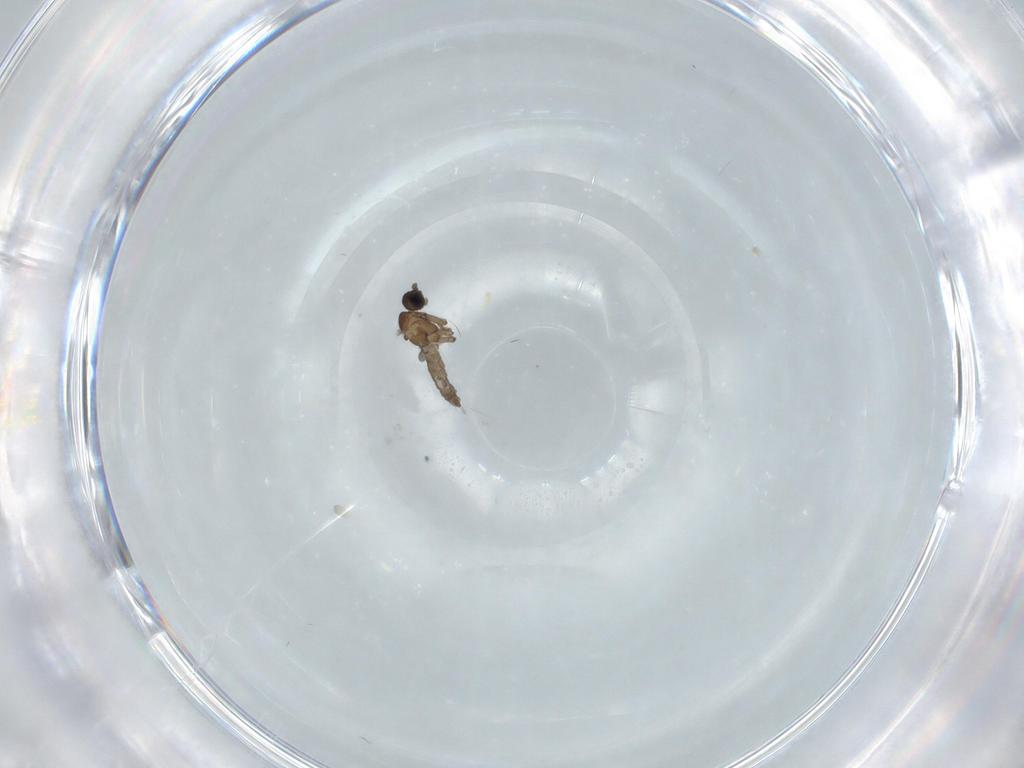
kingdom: Animalia
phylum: Arthropoda
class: Insecta
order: Diptera
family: Sciaridae
